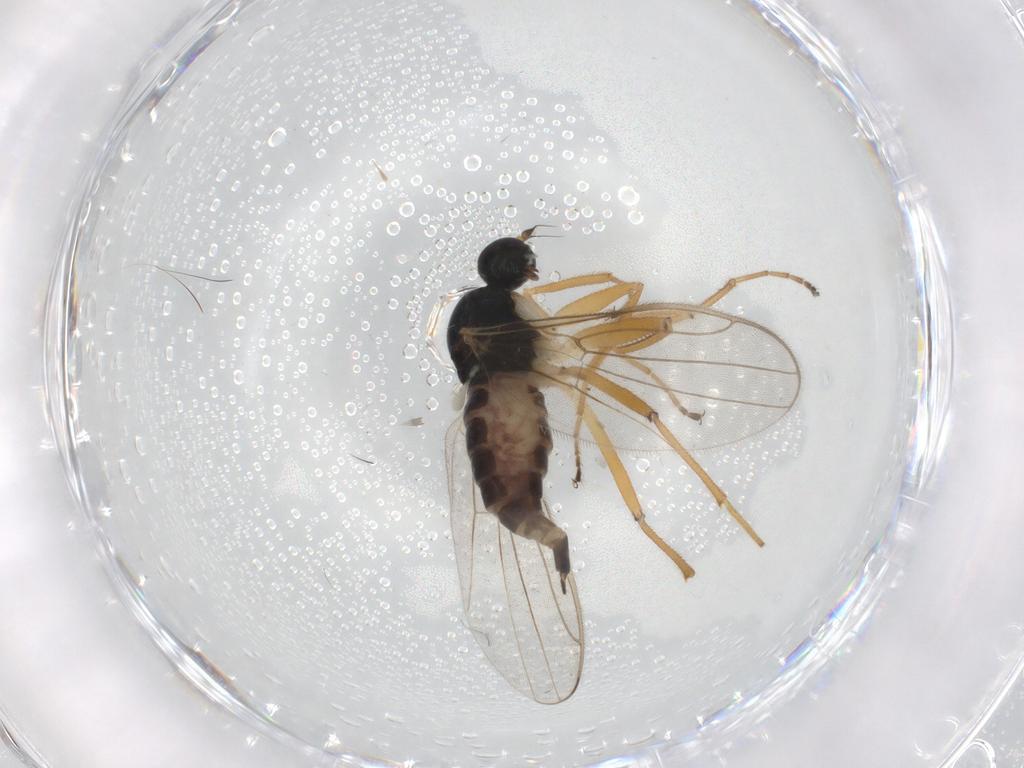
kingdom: Animalia
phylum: Arthropoda
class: Insecta
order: Diptera
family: Hybotidae
